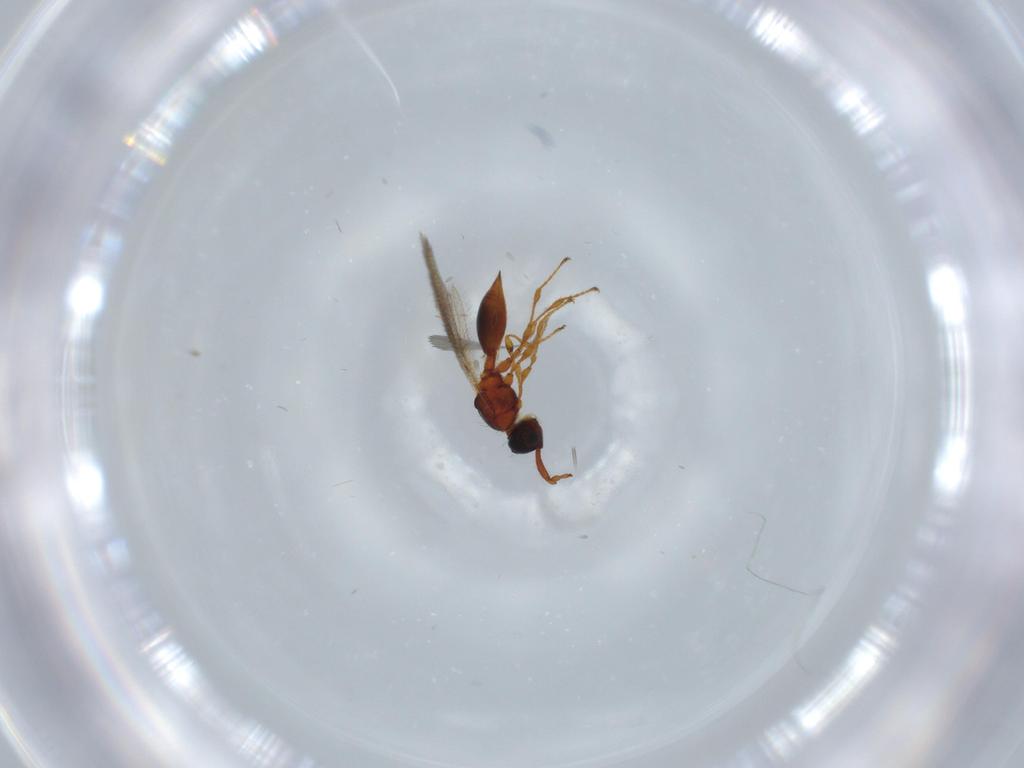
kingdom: Animalia
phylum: Arthropoda
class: Insecta
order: Hymenoptera
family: Diapriidae
